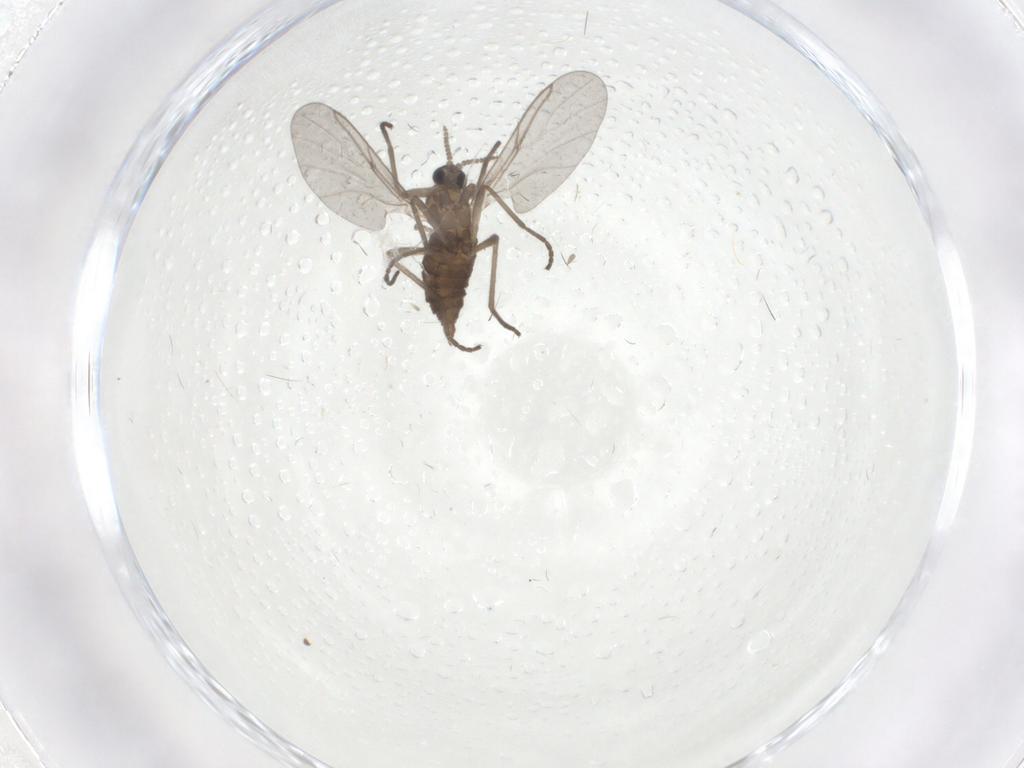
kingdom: Animalia
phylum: Arthropoda
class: Insecta
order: Diptera
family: Cecidomyiidae
